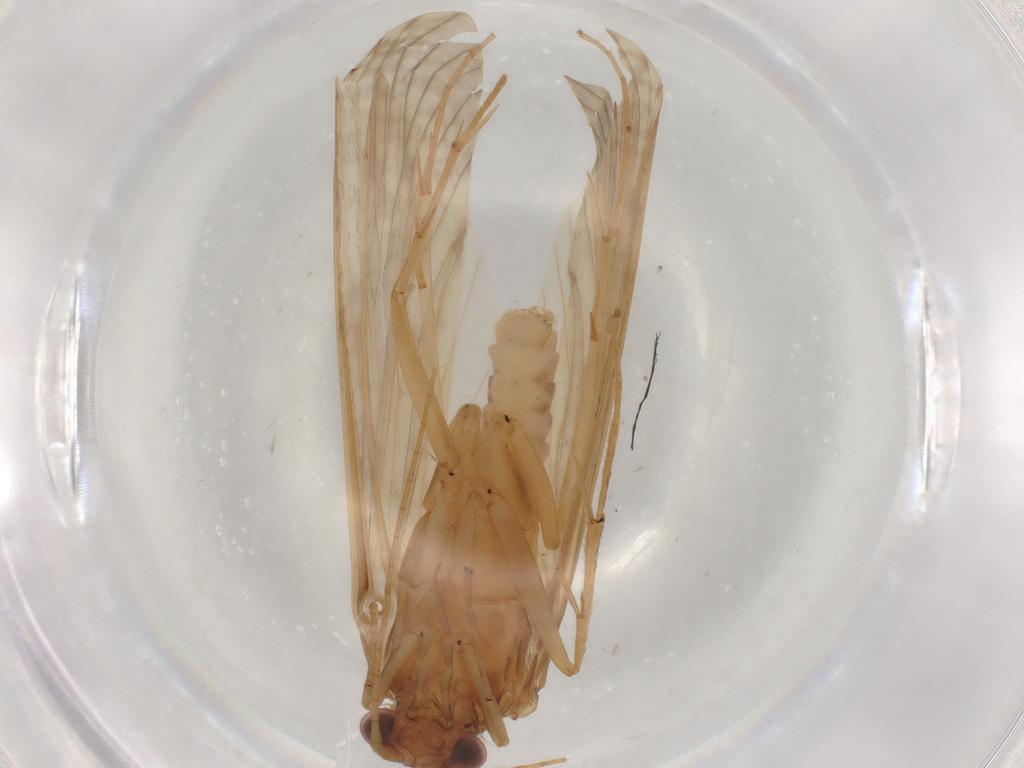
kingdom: Animalia
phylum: Arthropoda
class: Insecta
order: Trichoptera
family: Hydropsychidae
